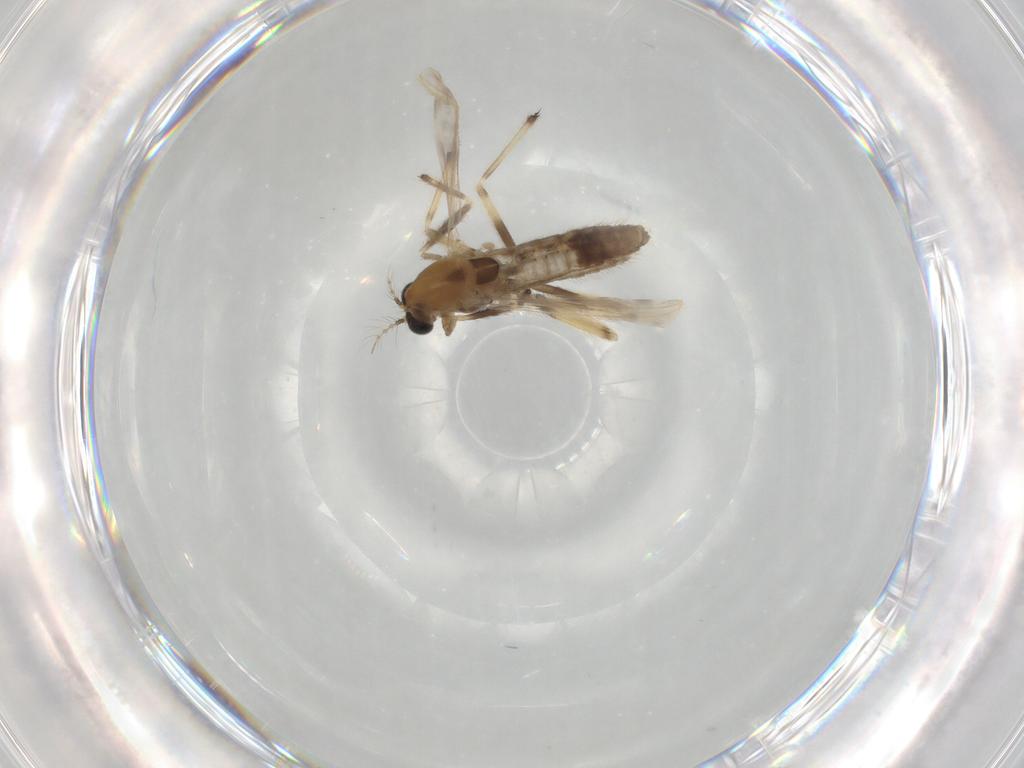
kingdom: Animalia
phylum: Arthropoda
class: Insecta
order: Diptera
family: Chironomidae
